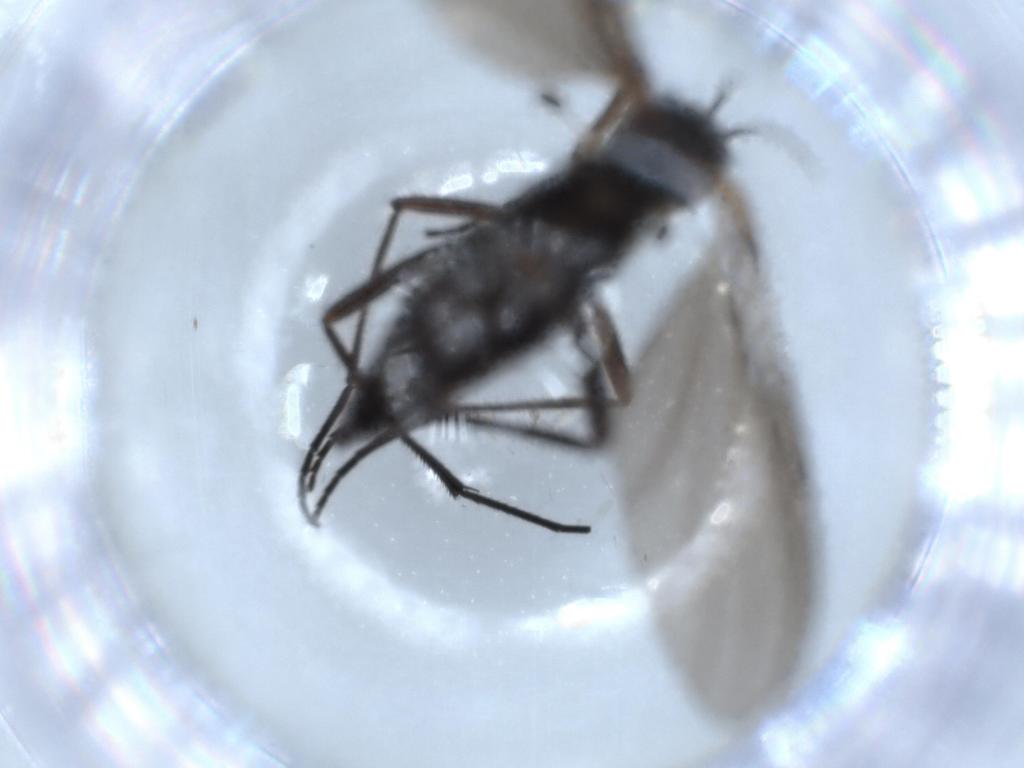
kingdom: Animalia
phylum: Arthropoda
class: Insecta
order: Diptera
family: Sciaridae
